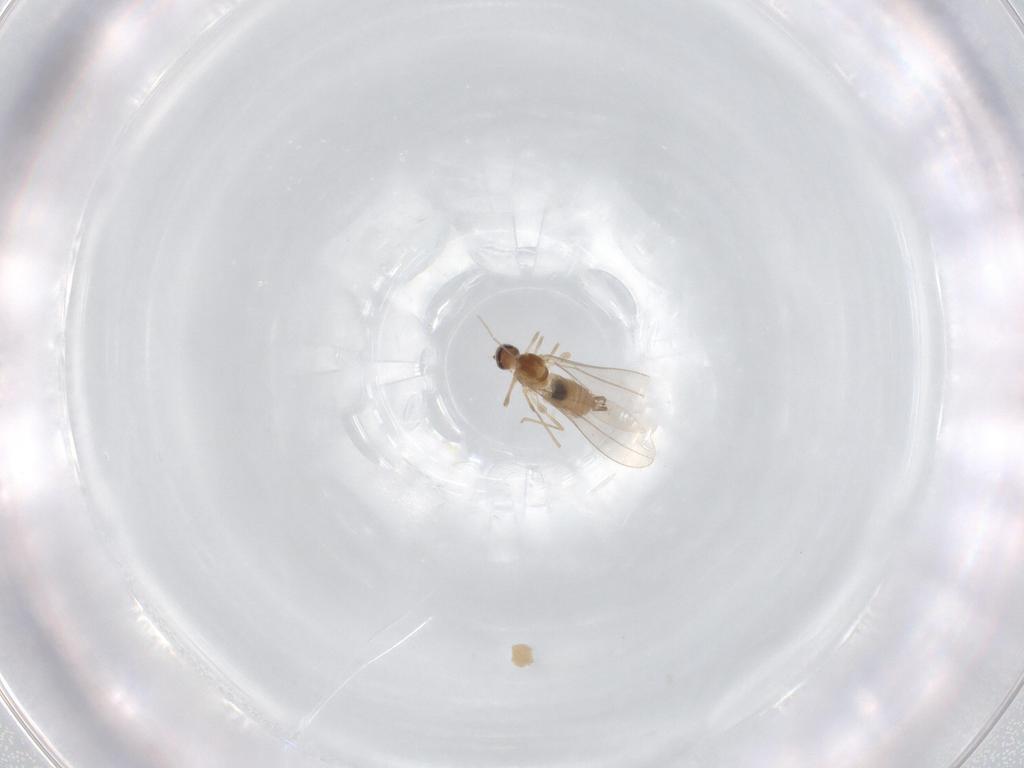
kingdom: Animalia
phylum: Arthropoda
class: Insecta
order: Diptera
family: Cecidomyiidae
